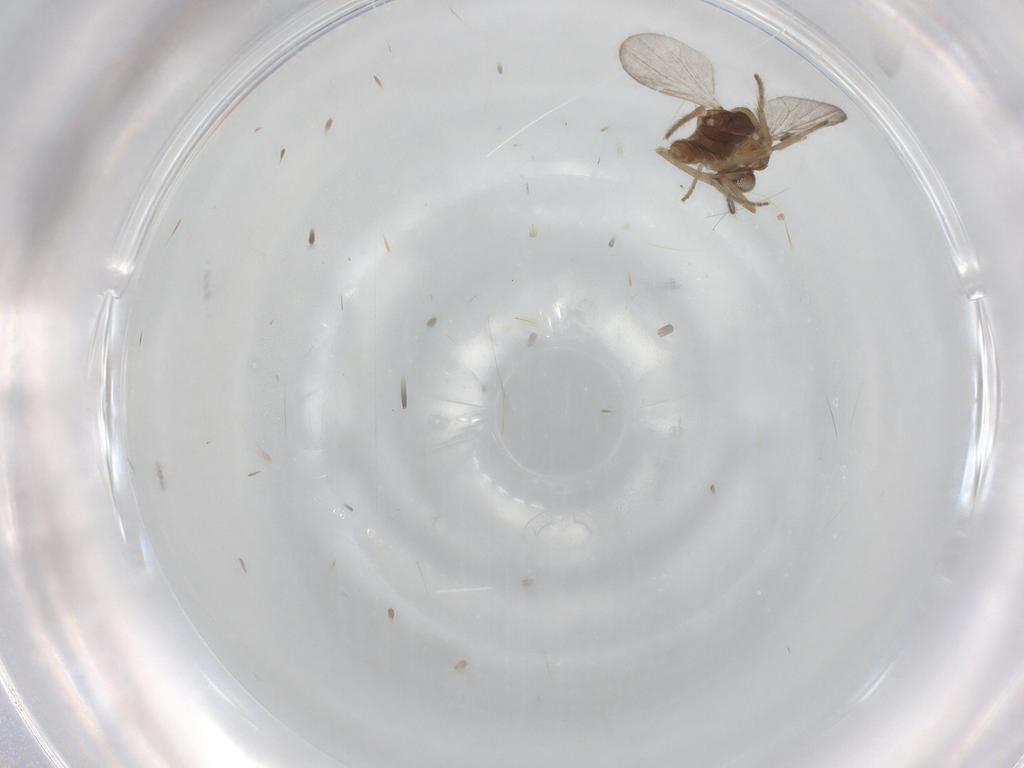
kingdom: Animalia
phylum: Arthropoda
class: Insecta
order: Diptera
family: Ceratopogonidae
